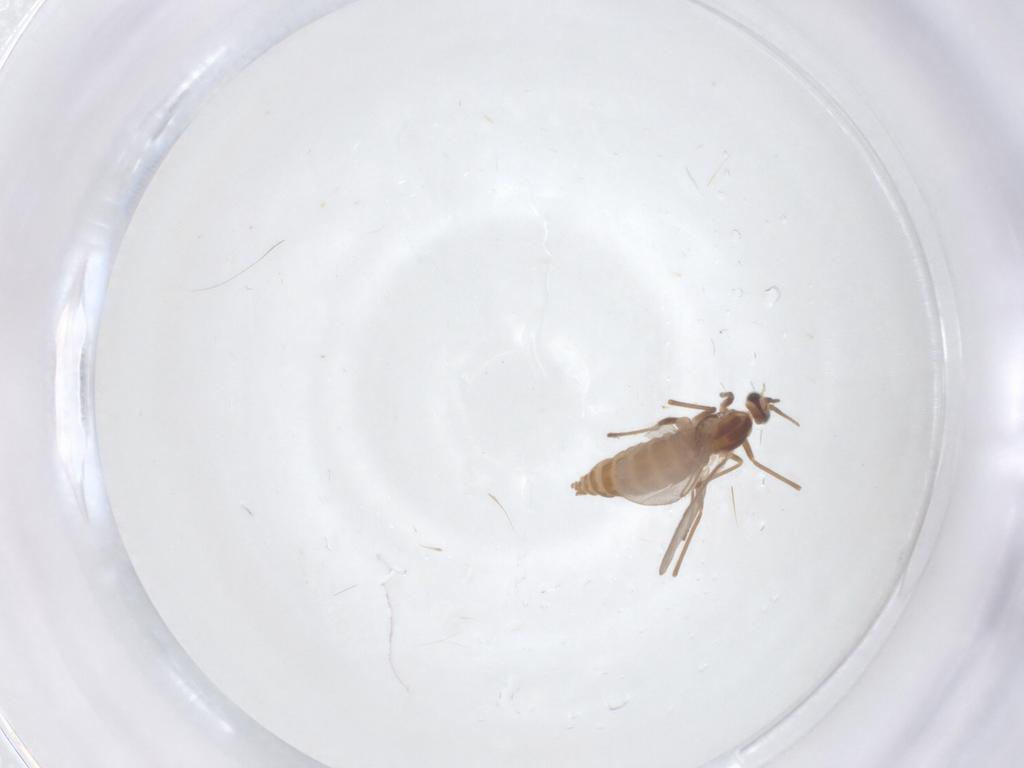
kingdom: Animalia
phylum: Arthropoda
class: Insecta
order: Diptera
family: Cecidomyiidae
